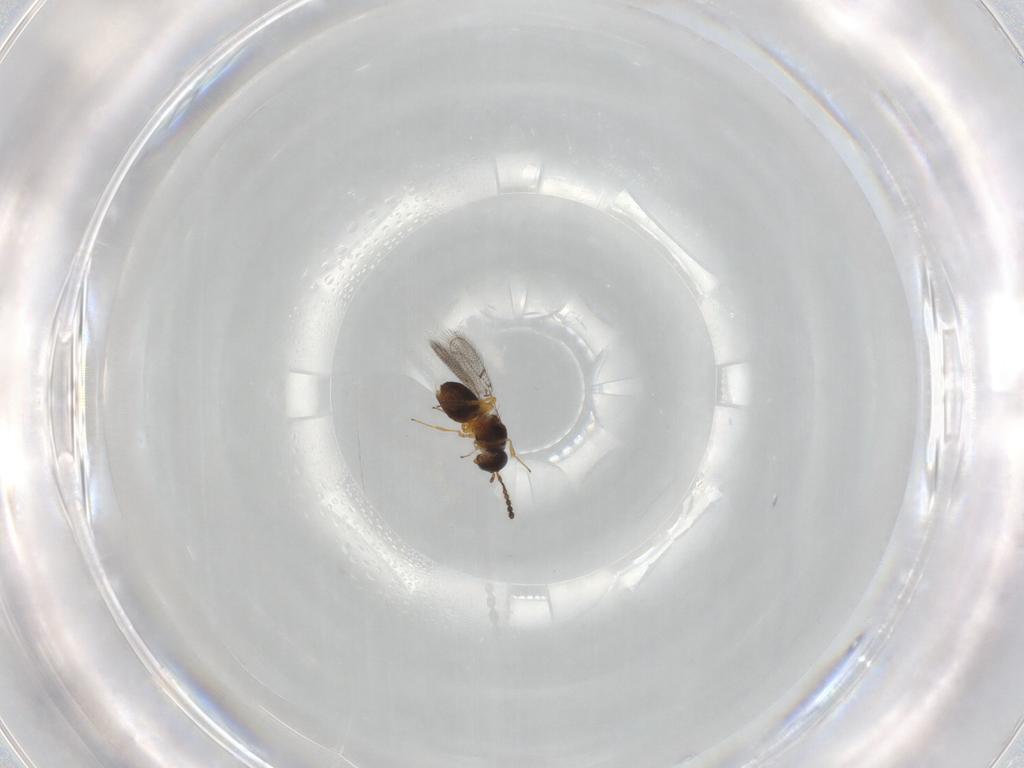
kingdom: Animalia
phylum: Arthropoda
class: Insecta
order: Hymenoptera
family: Figitidae
